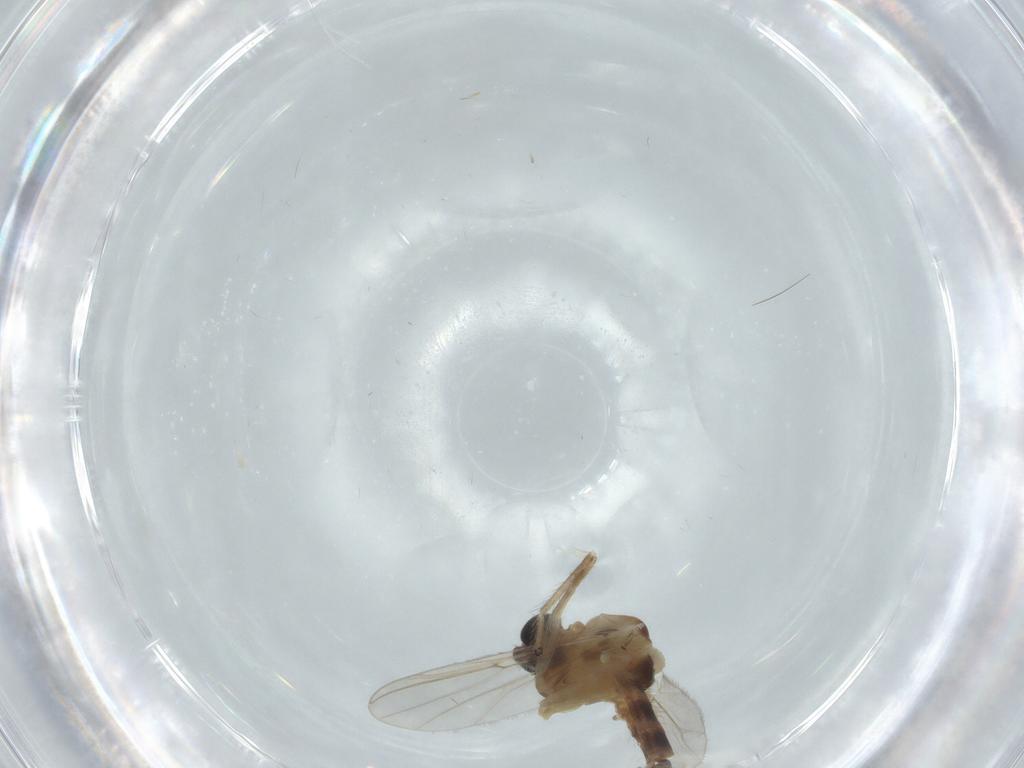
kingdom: Animalia
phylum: Arthropoda
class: Insecta
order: Diptera
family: Chironomidae
